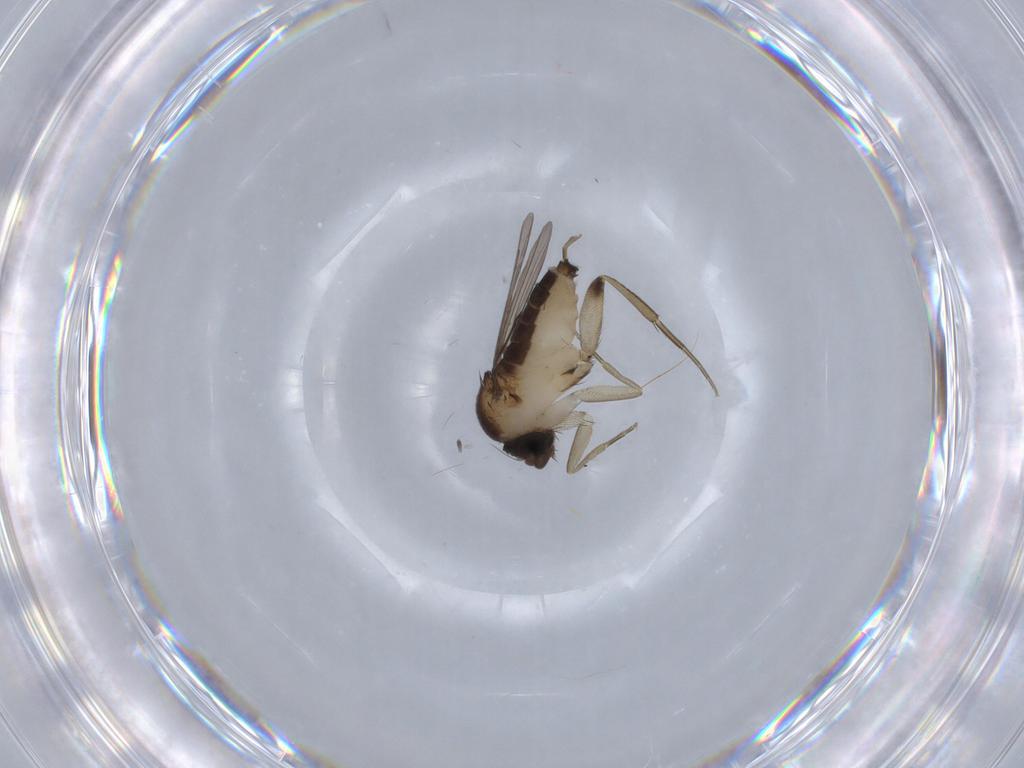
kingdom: Animalia
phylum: Arthropoda
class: Insecta
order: Diptera
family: Phoridae
